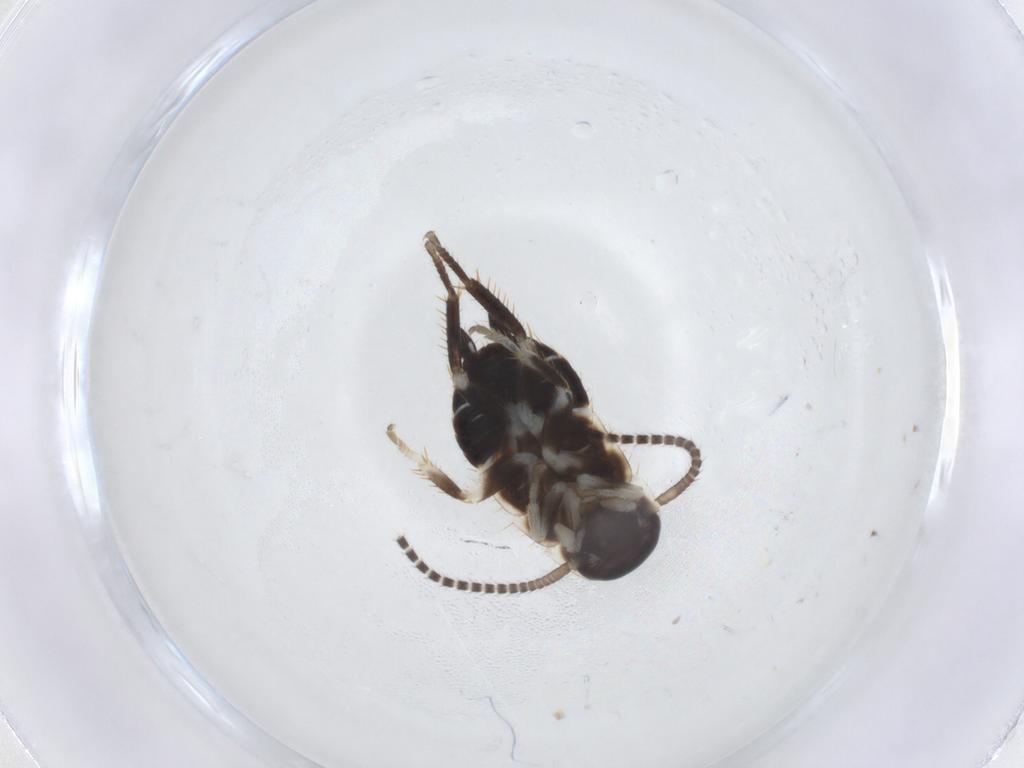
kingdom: Animalia
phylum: Arthropoda
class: Insecta
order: Blattodea
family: Ectobiidae
